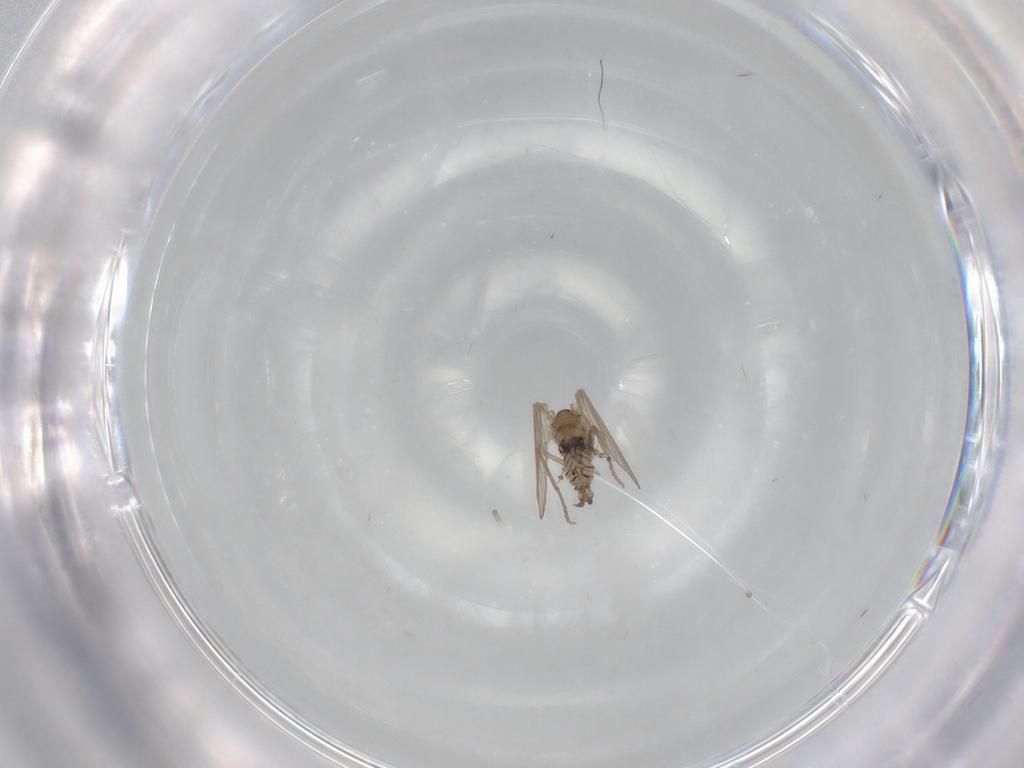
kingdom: Animalia
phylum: Arthropoda
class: Insecta
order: Diptera
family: Psychodidae
